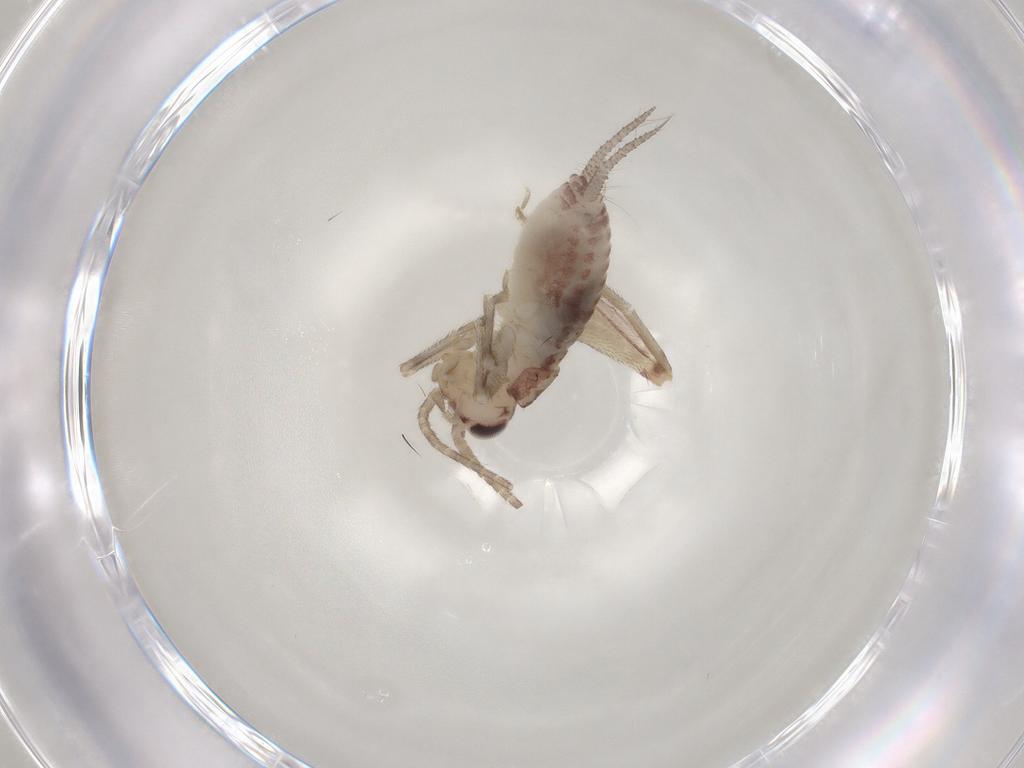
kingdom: Animalia
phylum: Arthropoda
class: Insecta
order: Orthoptera
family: Trigonidiidae
